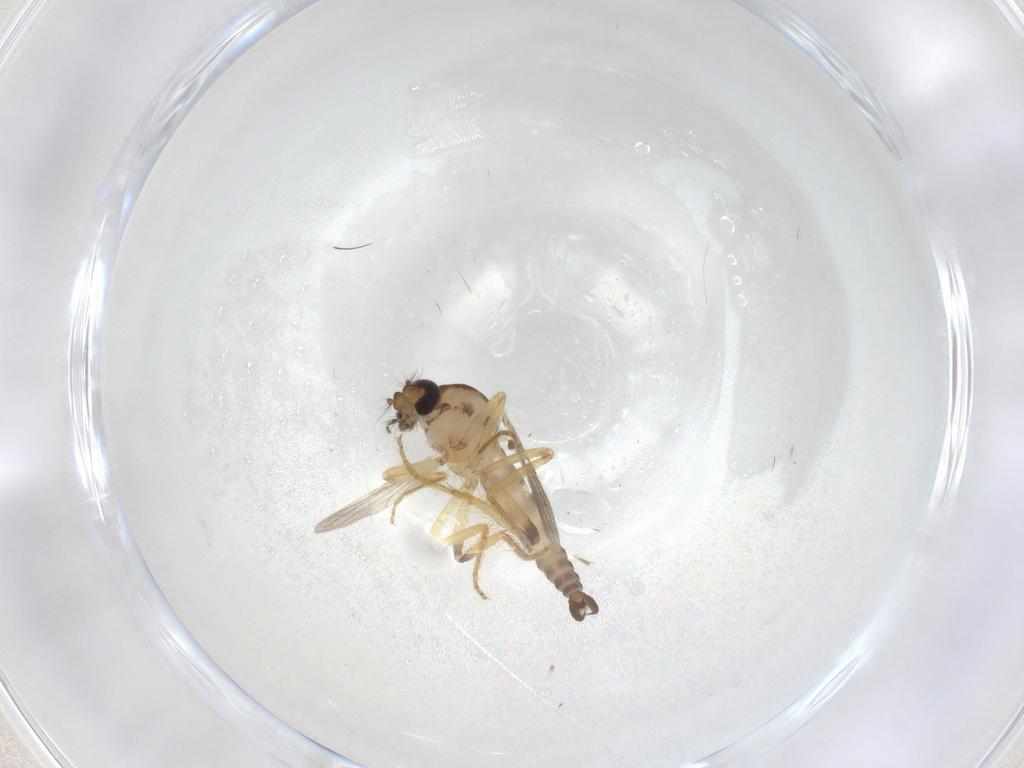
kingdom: Animalia
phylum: Arthropoda
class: Insecta
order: Diptera
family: Ceratopogonidae
